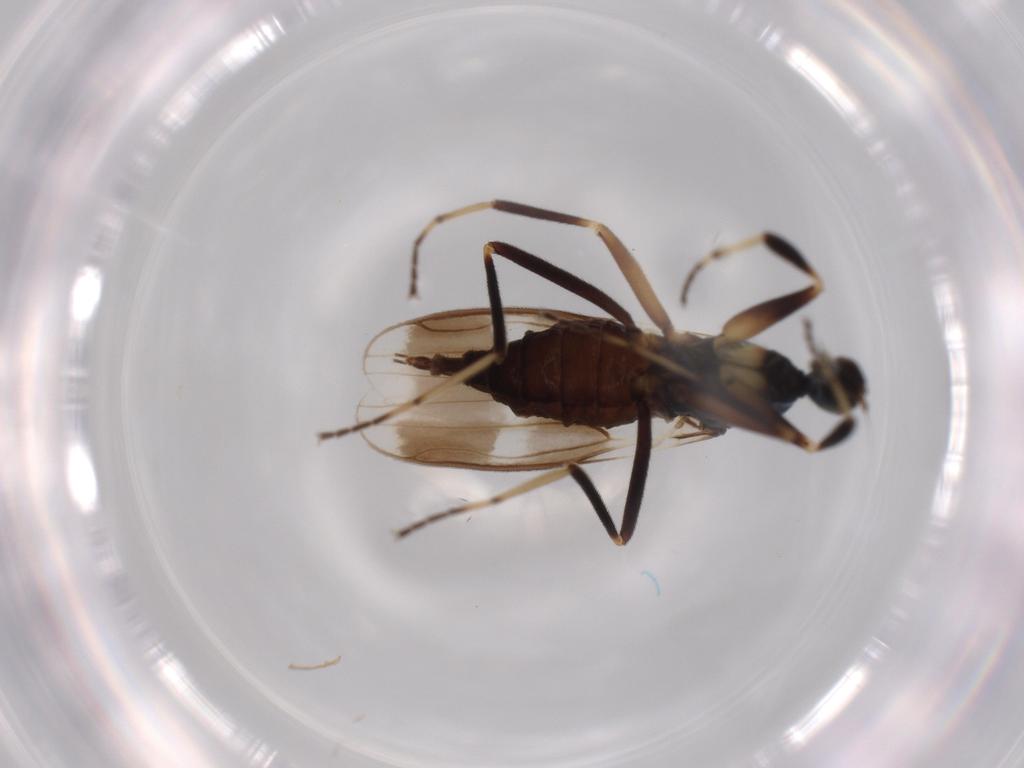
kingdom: Animalia
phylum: Arthropoda
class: Insecta
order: Diptera
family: Hybotidae
